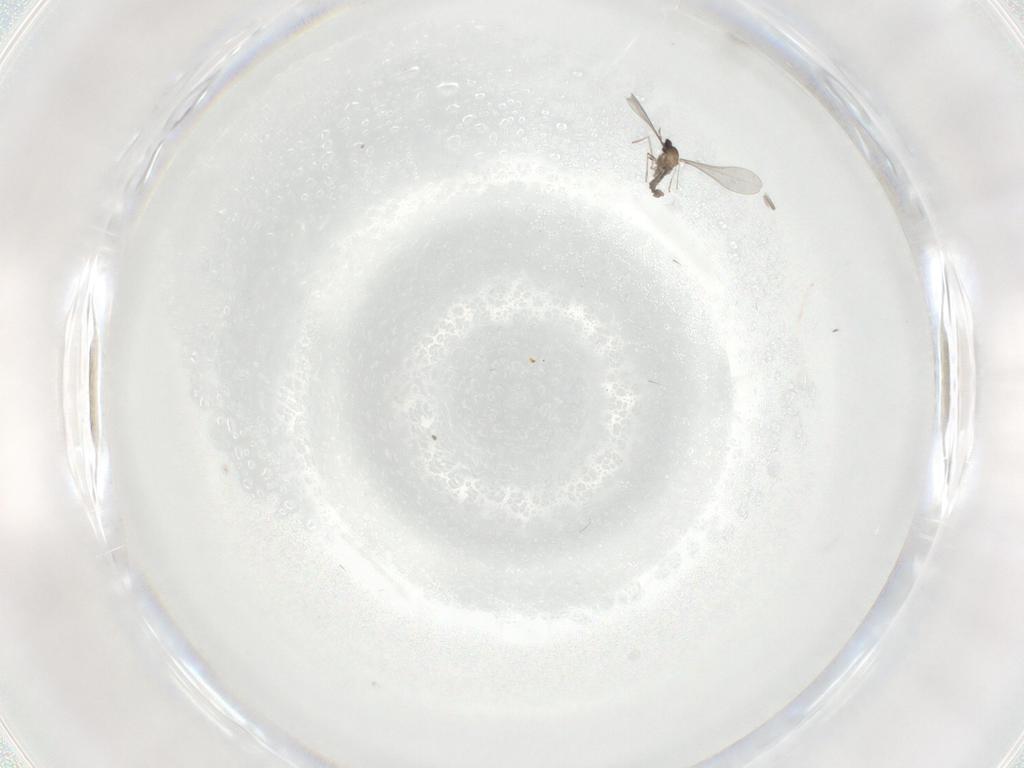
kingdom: Animalia
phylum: Arthropoda
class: Insecta
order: Diptera
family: Cecidomyiidae
